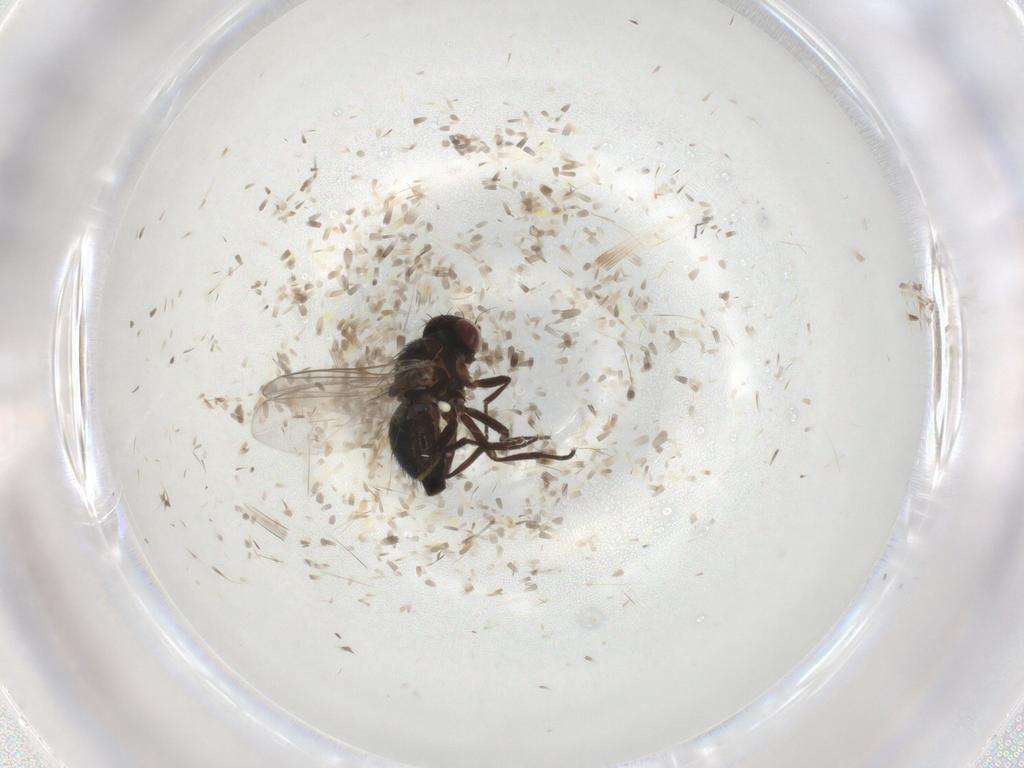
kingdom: Animalia
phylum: Arthropoda
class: Insecta
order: Diptera
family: Agromyzidae
